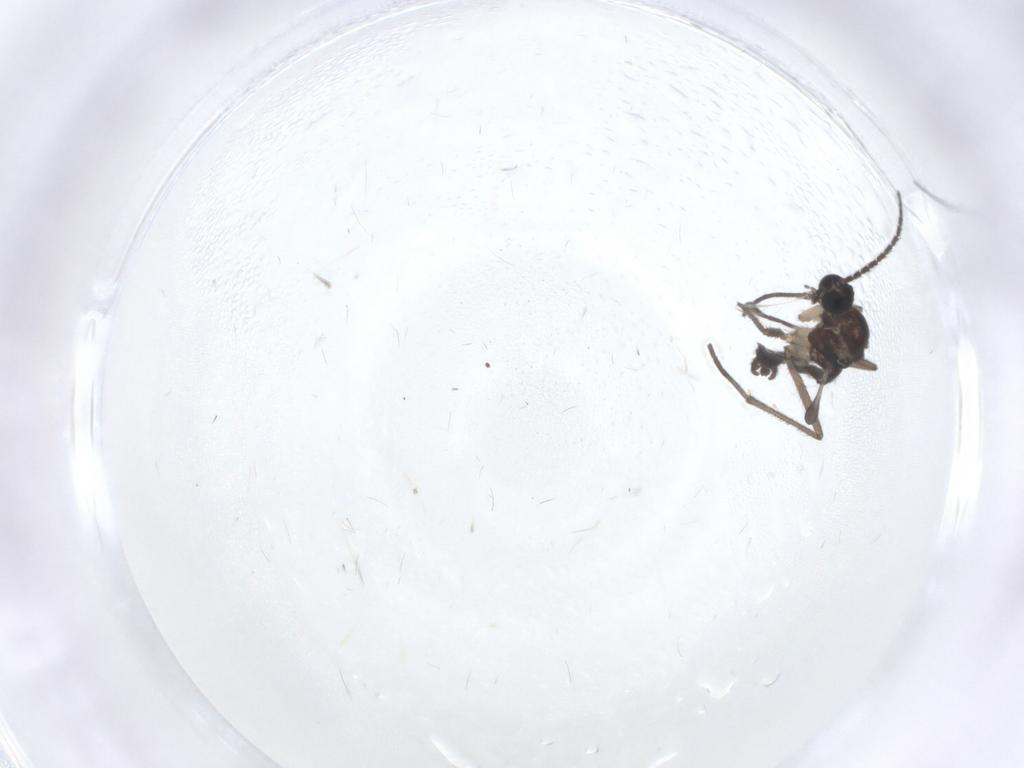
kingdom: Animalia
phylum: Arthropoda
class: Insecta
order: Diptera
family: Sciaridae
